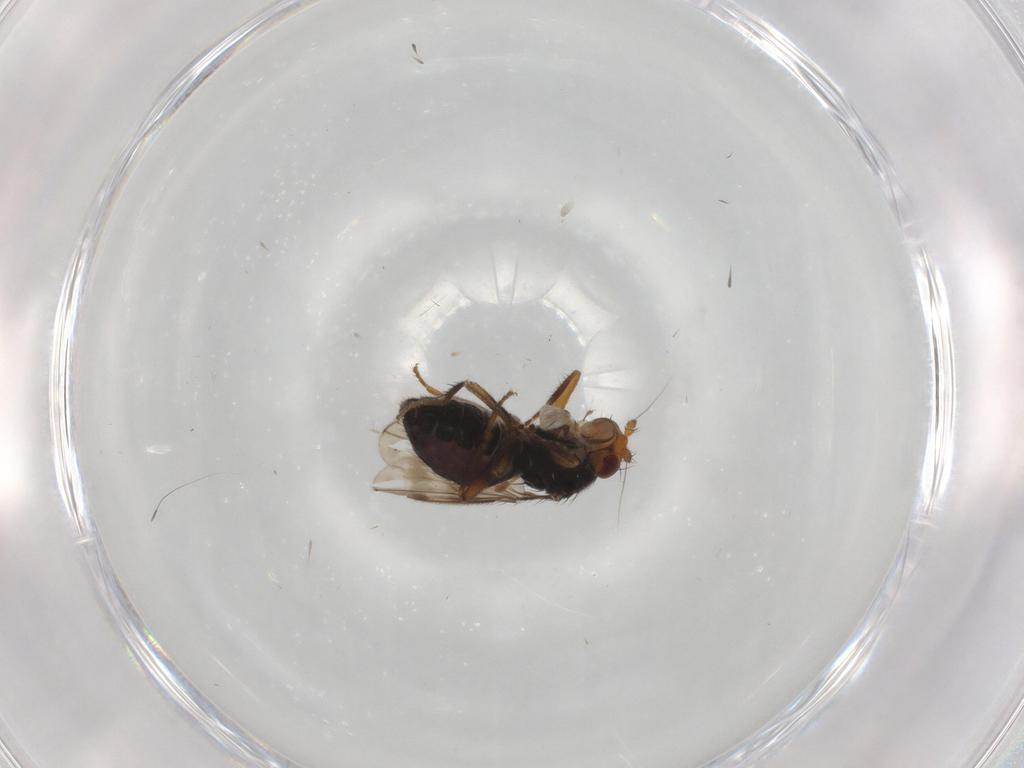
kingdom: Animalia
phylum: Arthropoda
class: Insecta
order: Diptera
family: Sphaeroceridae
